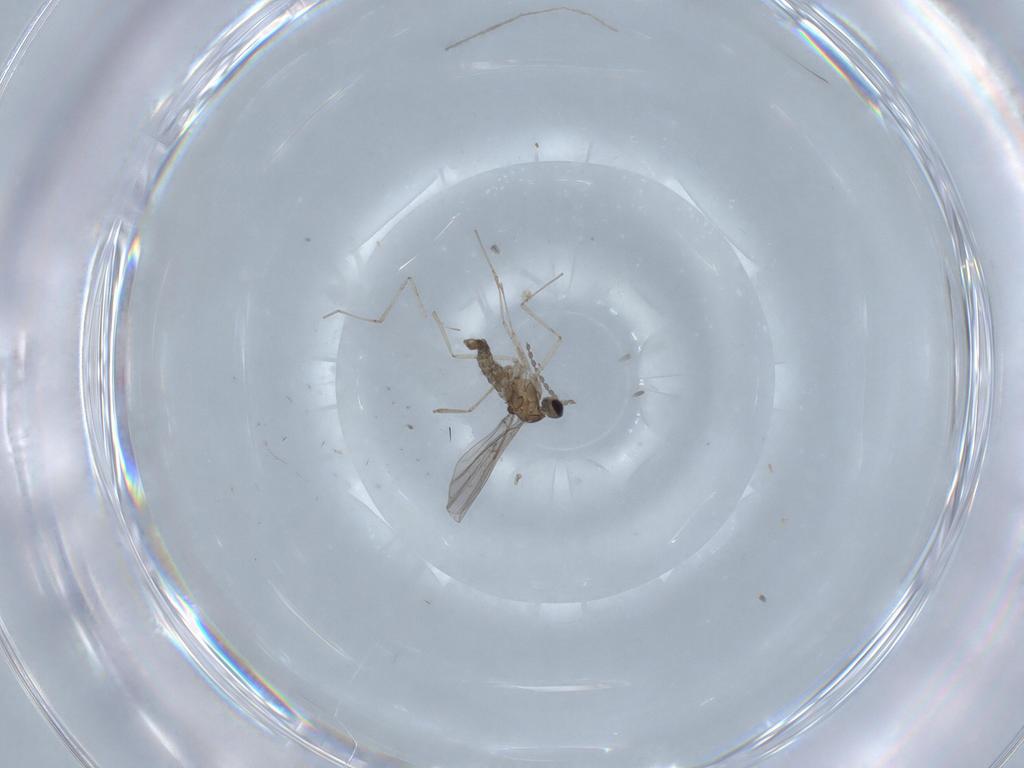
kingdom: Animalia
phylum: Arthropoda
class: Insecta
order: Diptera
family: Chironomidae
